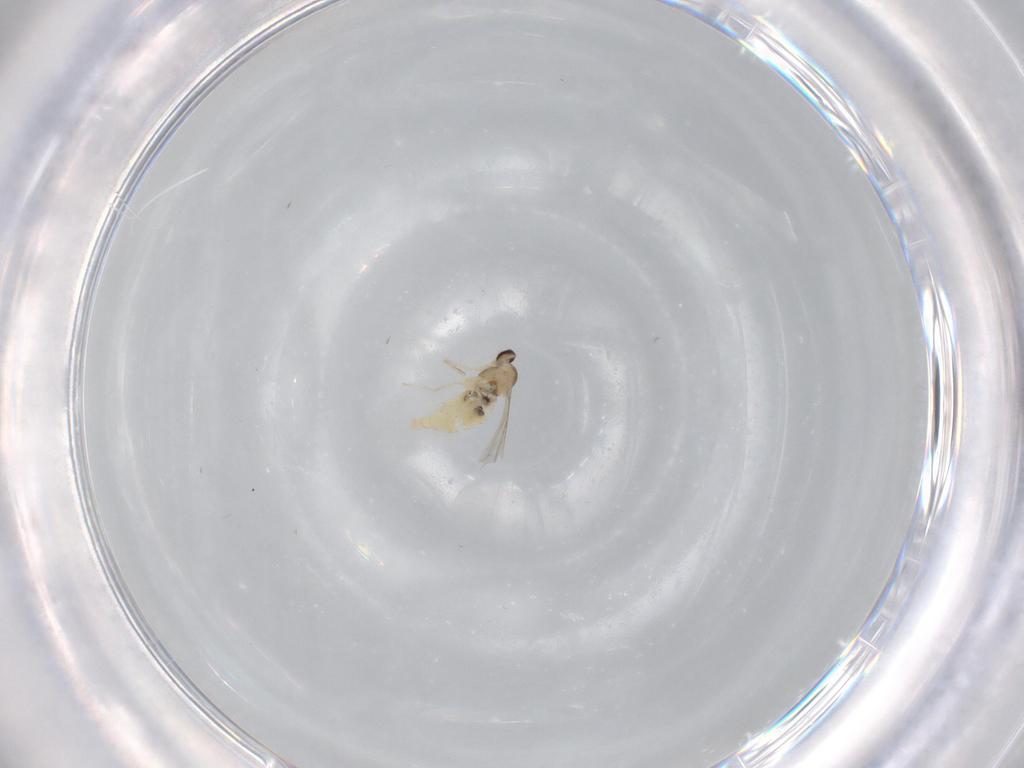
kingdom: Animalia
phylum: Arthropoda
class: Insecta
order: Diptera
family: Cecidomyiidae
